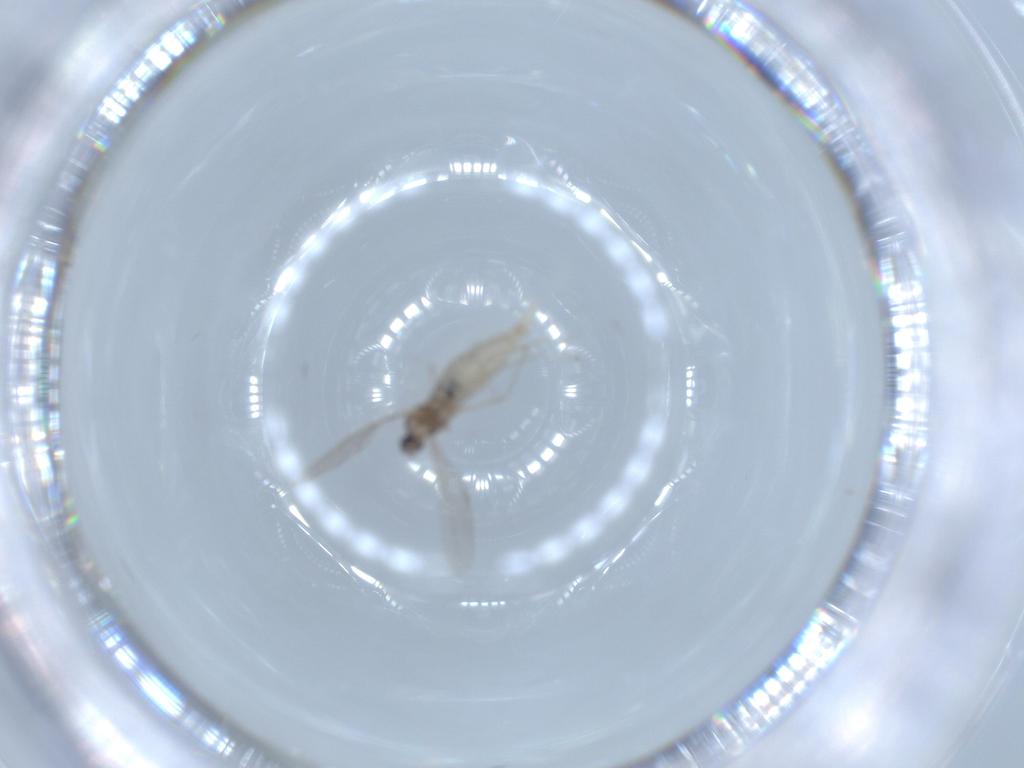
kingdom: Animalia
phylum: Arthropoda
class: Insecta
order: Diptera
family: Cecidomyiidae
